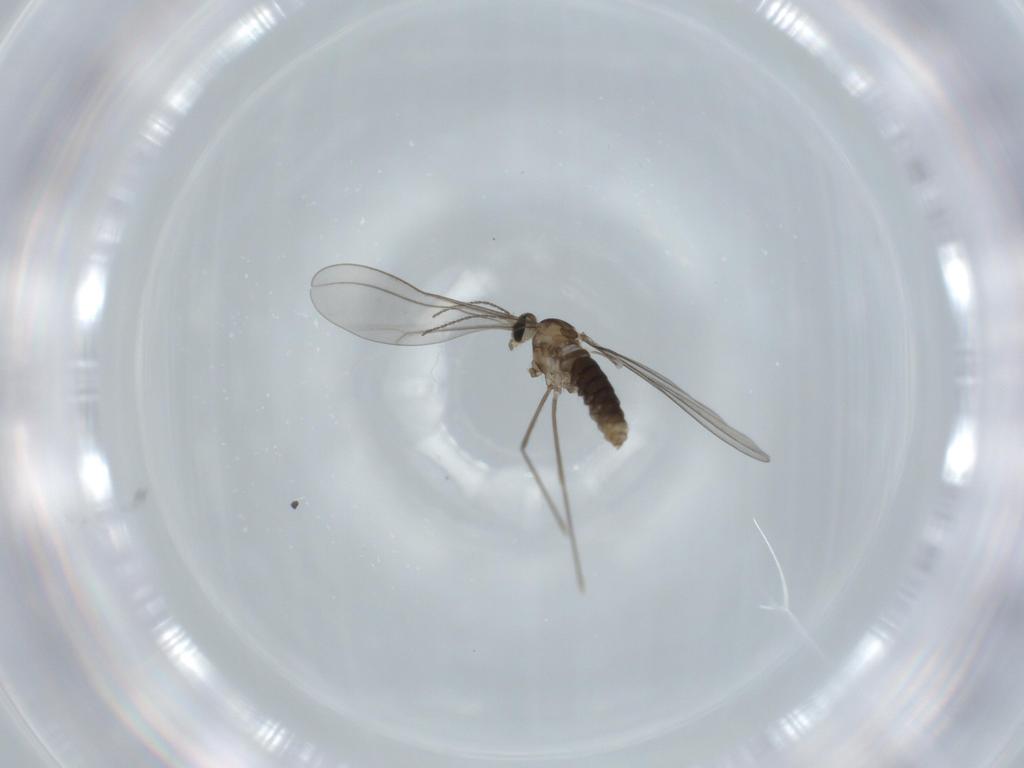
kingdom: Animalia
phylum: Arthropoda
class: Insecta
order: Diptera
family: Cecidomyiidae
